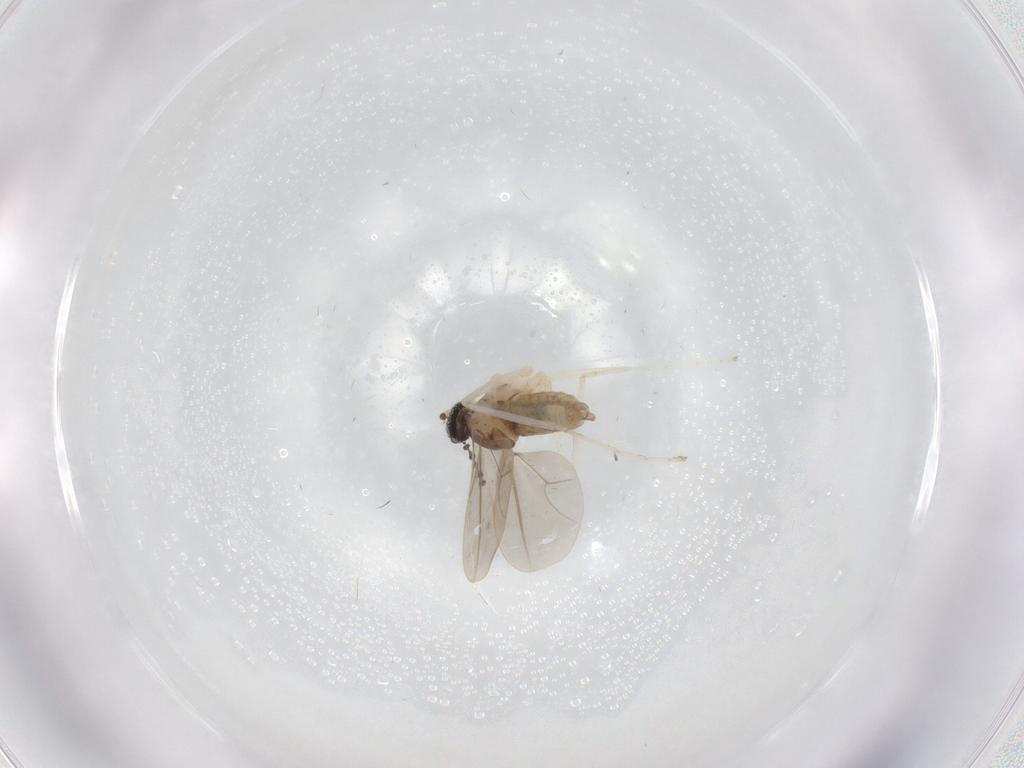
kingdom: Animalia
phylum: Arthropoda
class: Insecta
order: Diptera
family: Chironomidae
